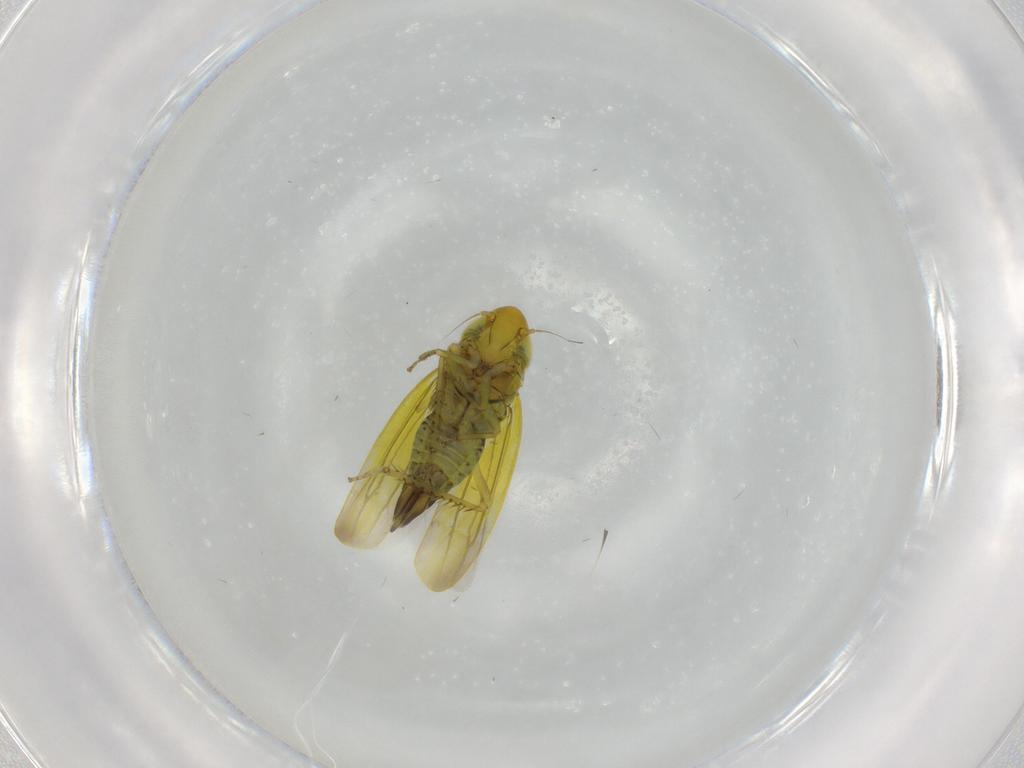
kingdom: Animalia
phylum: Arthropoda
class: Insecta
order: Hemiptera
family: Cicadellidae
